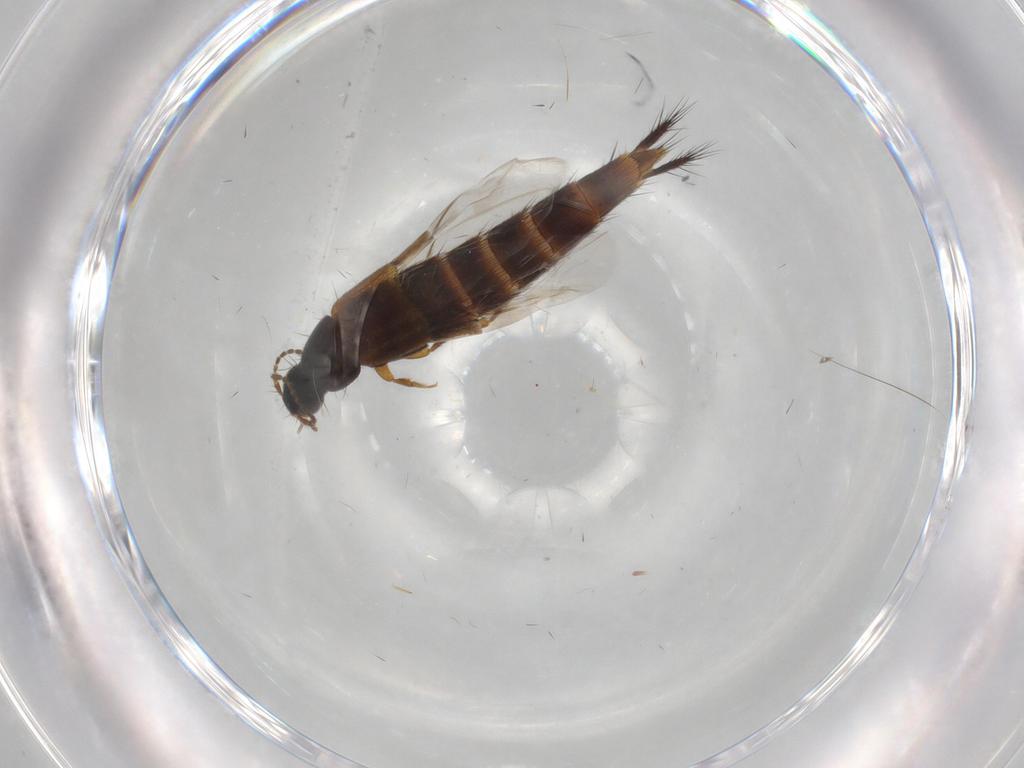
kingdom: Animalia
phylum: Arthropoda
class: Insecta
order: Coleoptera
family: Staphylinidae
